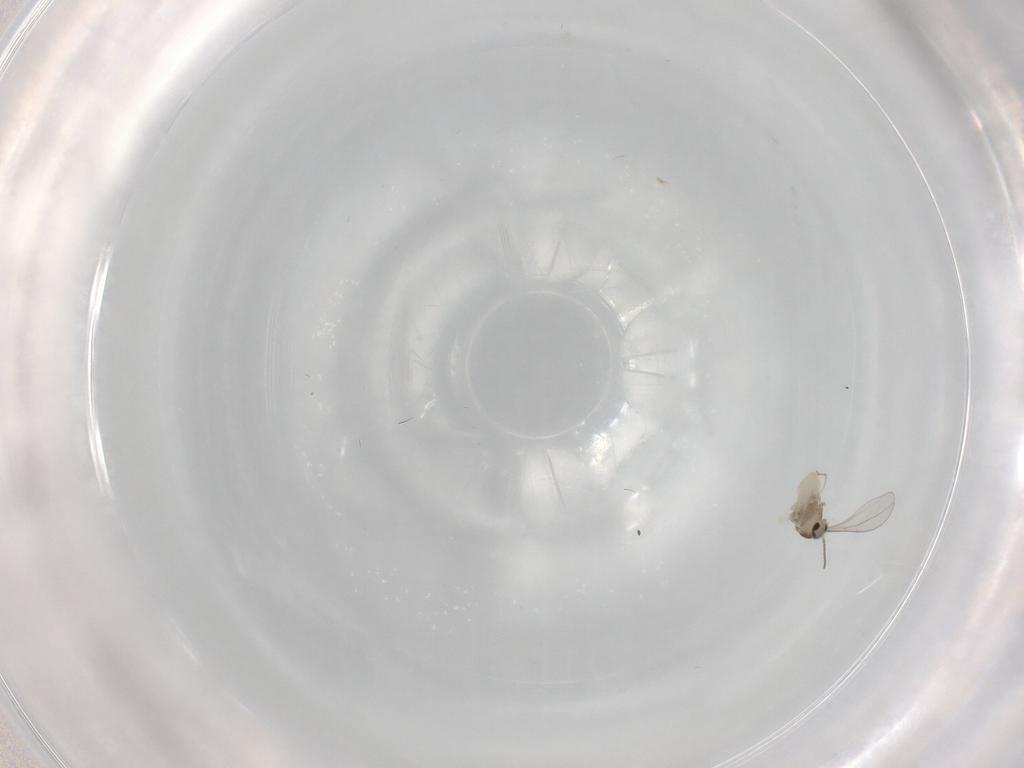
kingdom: Animalia
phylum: Arthropoda
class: Insecta
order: Diptera
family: Cecidomyiidae
